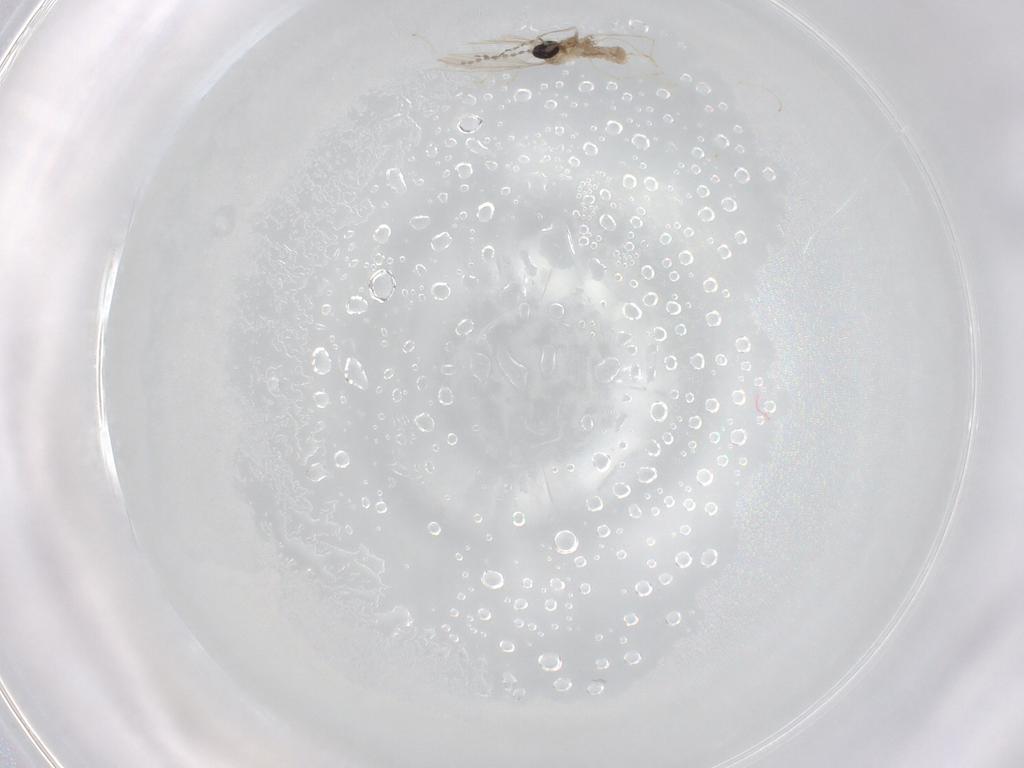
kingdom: Animalia
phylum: Arthropoda
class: Insecta
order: Diptera
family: Cecidomyiidae
